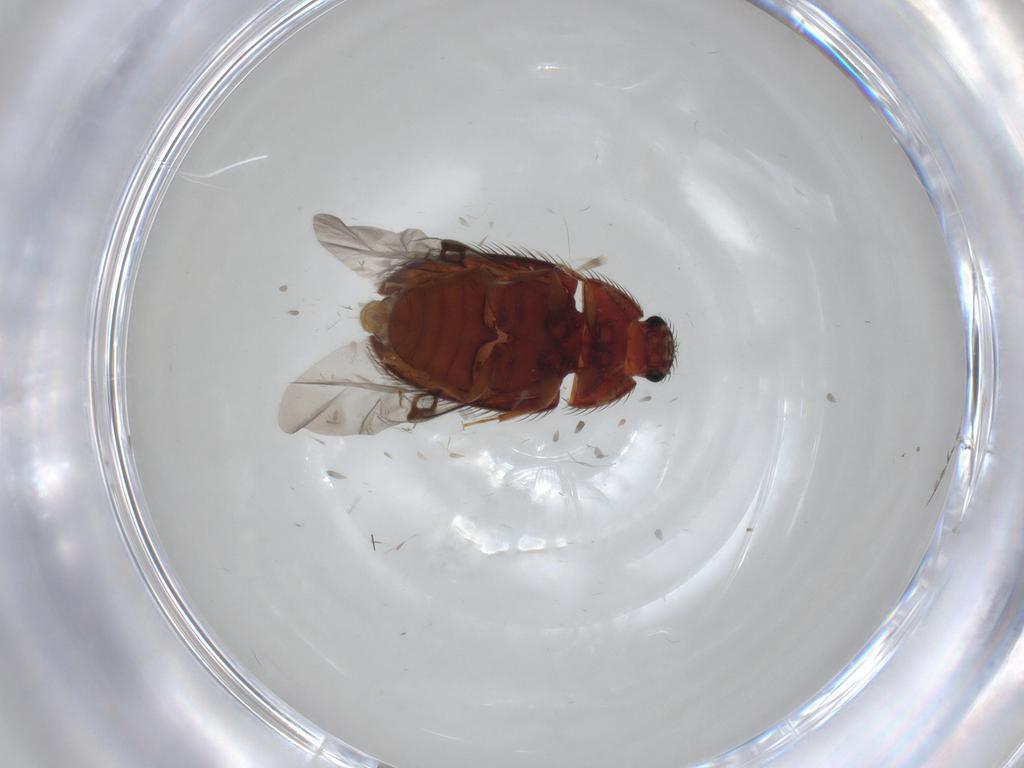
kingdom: Animalia
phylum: Arthropoda
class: Insecta
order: Coleoptera
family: Biphyllidae
